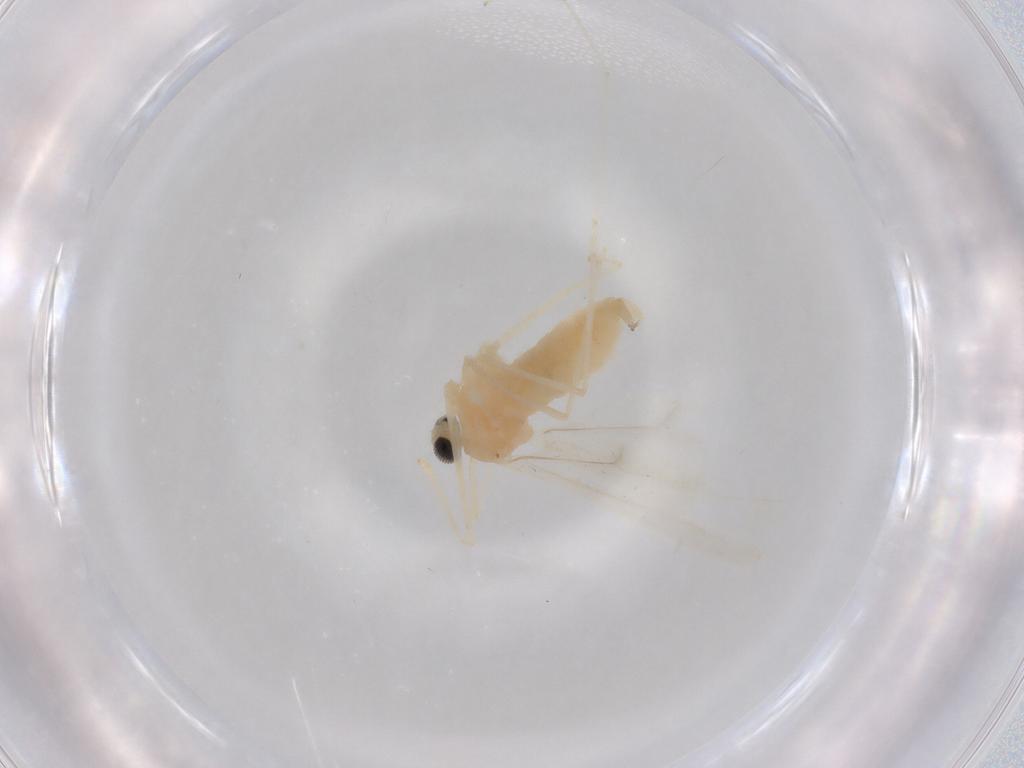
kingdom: Animalia
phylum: Arthropoda
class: Insecta
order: Diptera
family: Cecidomyiidae
